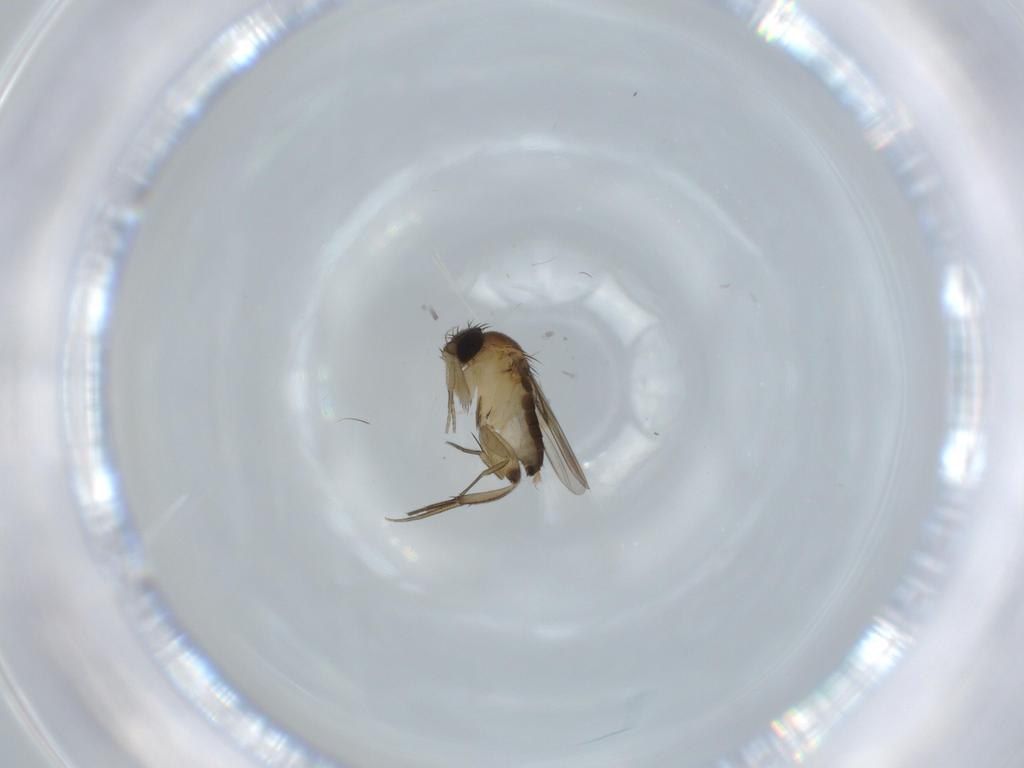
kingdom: Animalia
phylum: Arthropoda
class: Insecta
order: Diptera
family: Phoridae
